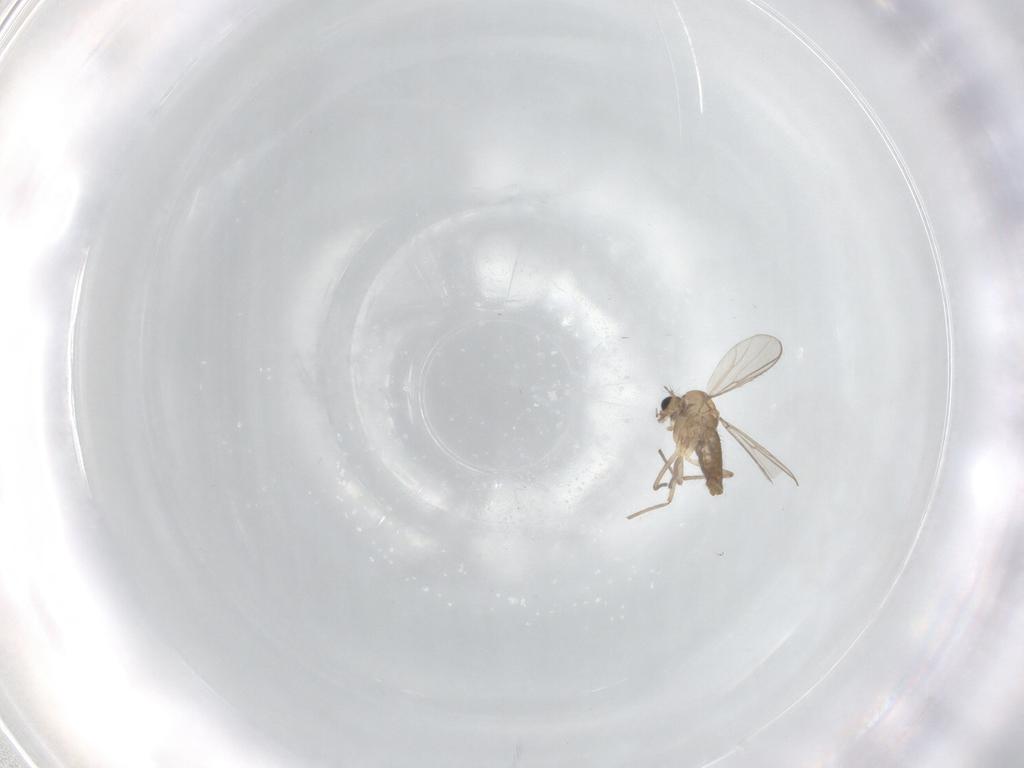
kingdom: Animalia
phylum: Arthropoda
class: Insecta
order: Diptera
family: Chironomidae
